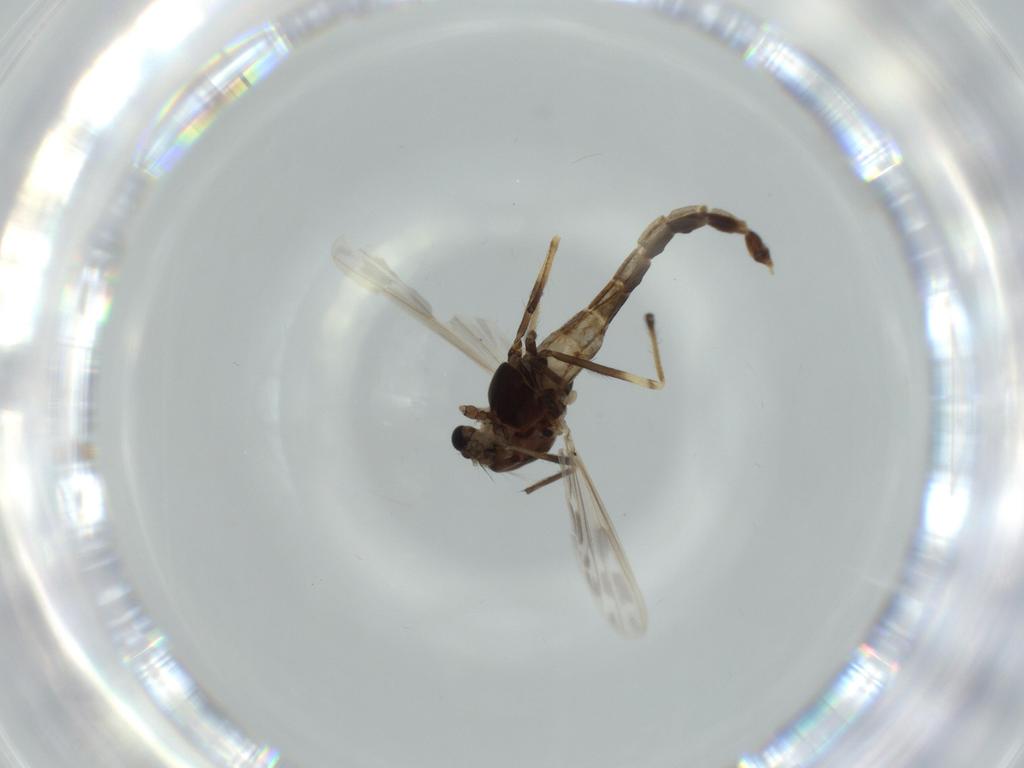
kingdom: Animalia
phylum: Arthropoda
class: Insecta
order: Diptera
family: Chironomidae
